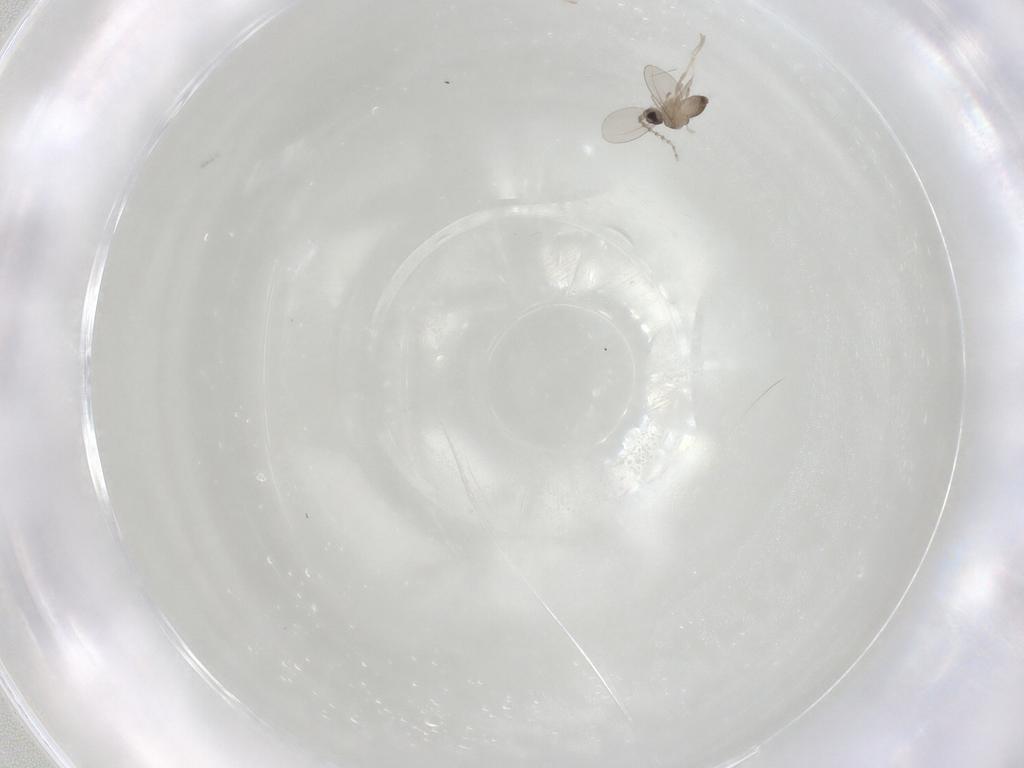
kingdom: Animalia
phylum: Arthropoda
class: Insecta
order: Diptera
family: Cecidomyiidae
